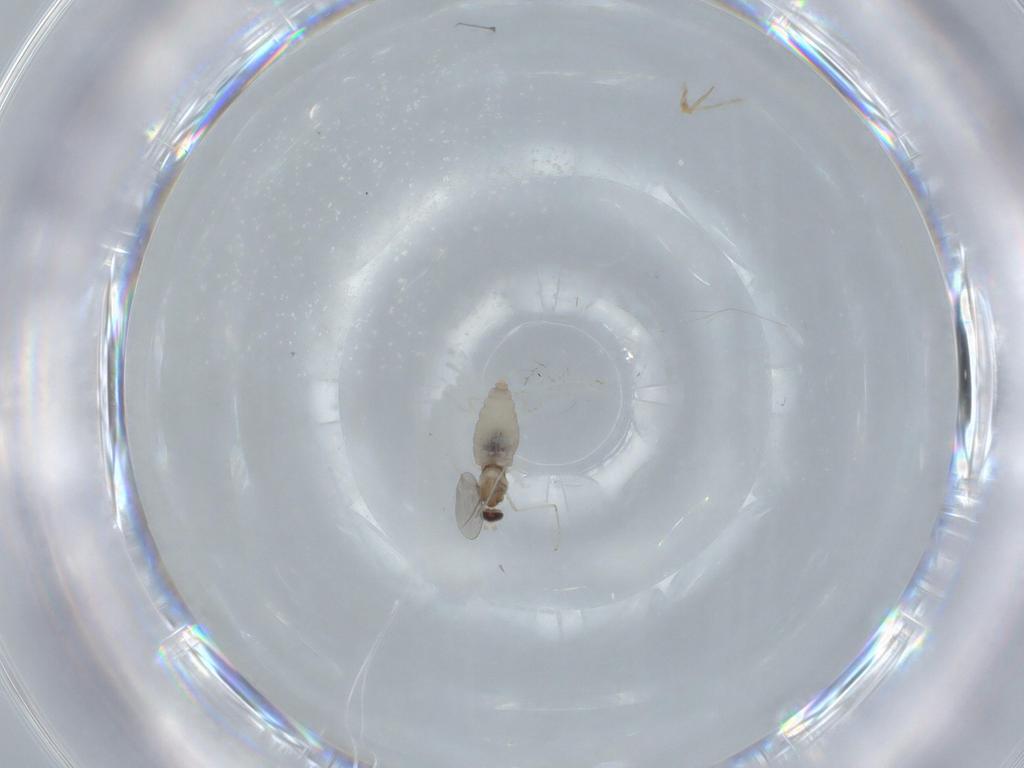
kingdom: Animalia
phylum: Arthropoda
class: Insecta
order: Diptera
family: Cecidomyiidae
